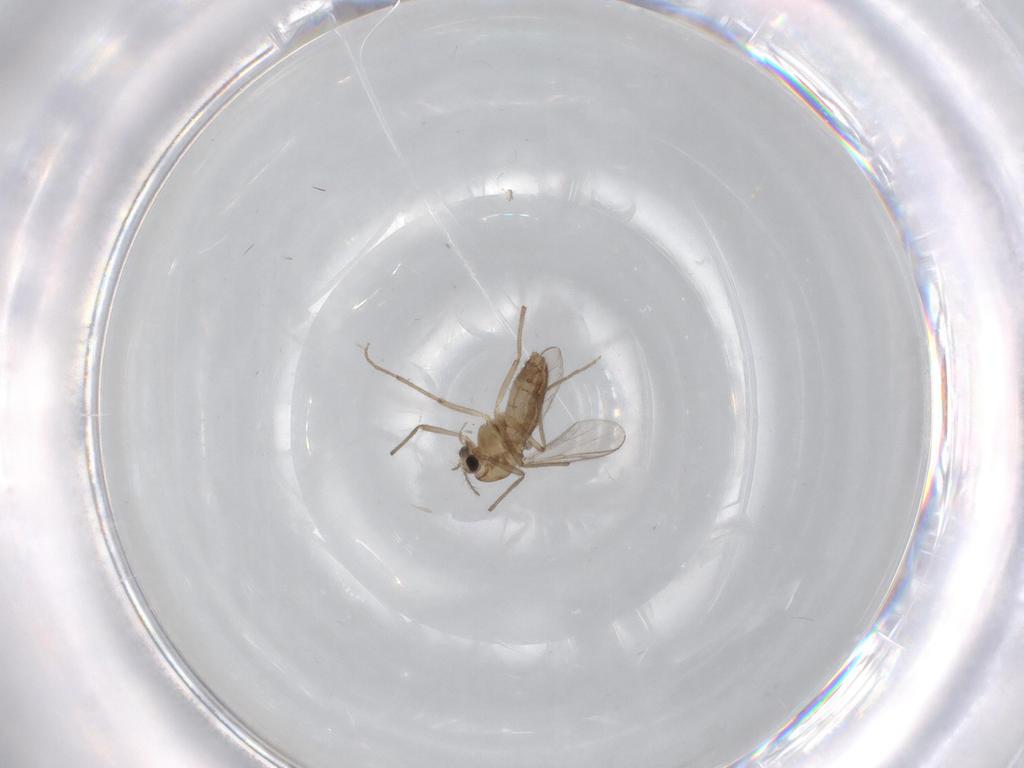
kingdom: Animalia
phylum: Arthropoda
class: Insecta
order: Diptera
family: Chironomidae
